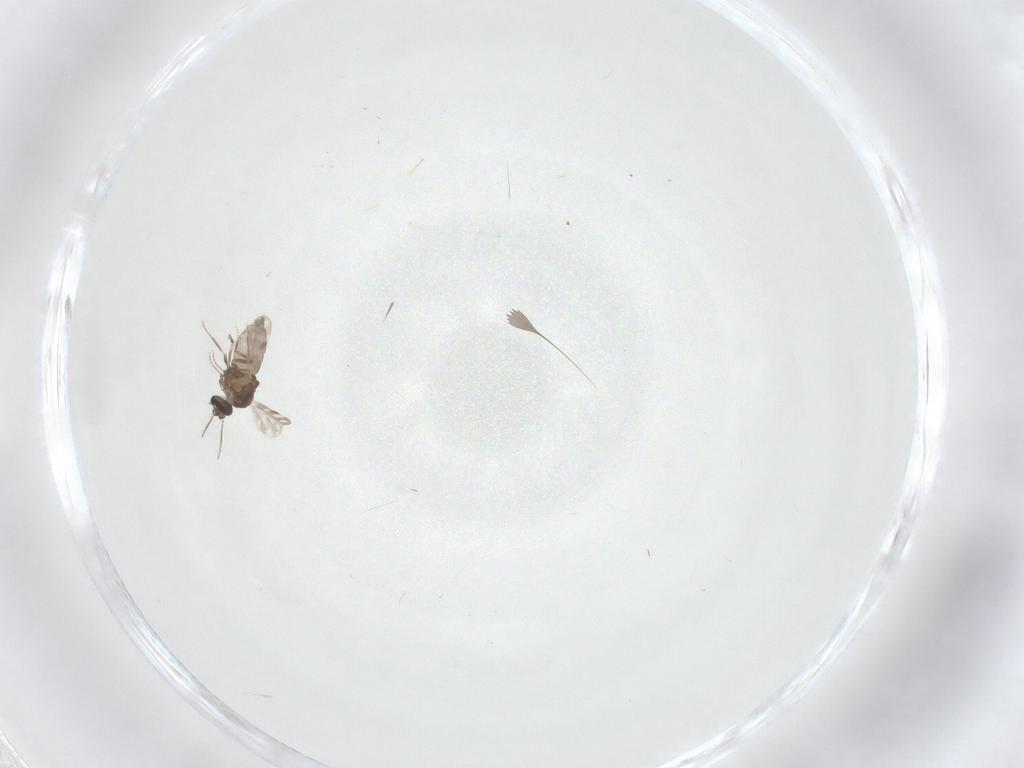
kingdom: Animalia
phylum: Arthropoda
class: Insecta
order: Diptera
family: Ceratopogonidae
